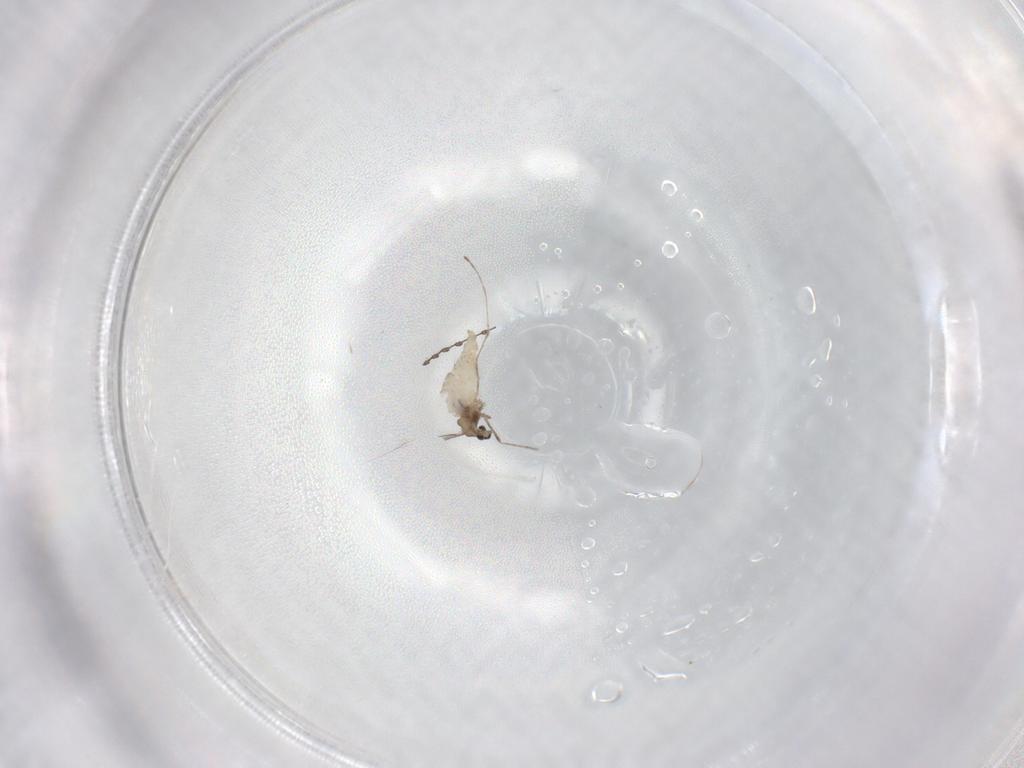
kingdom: Animalia
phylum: Arthropoda
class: Insecta
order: Diptera
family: Cecidomyiidae
